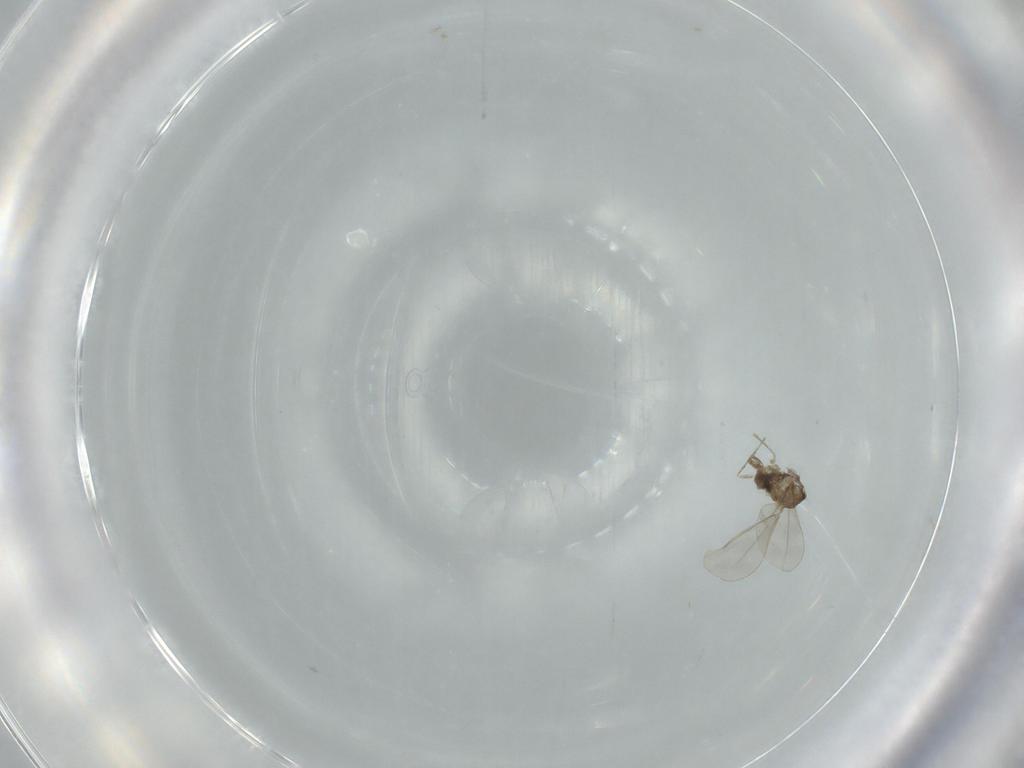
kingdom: Animalia
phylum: Arthropoda
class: Insecta
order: Diptera
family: Cecidomyiidae
